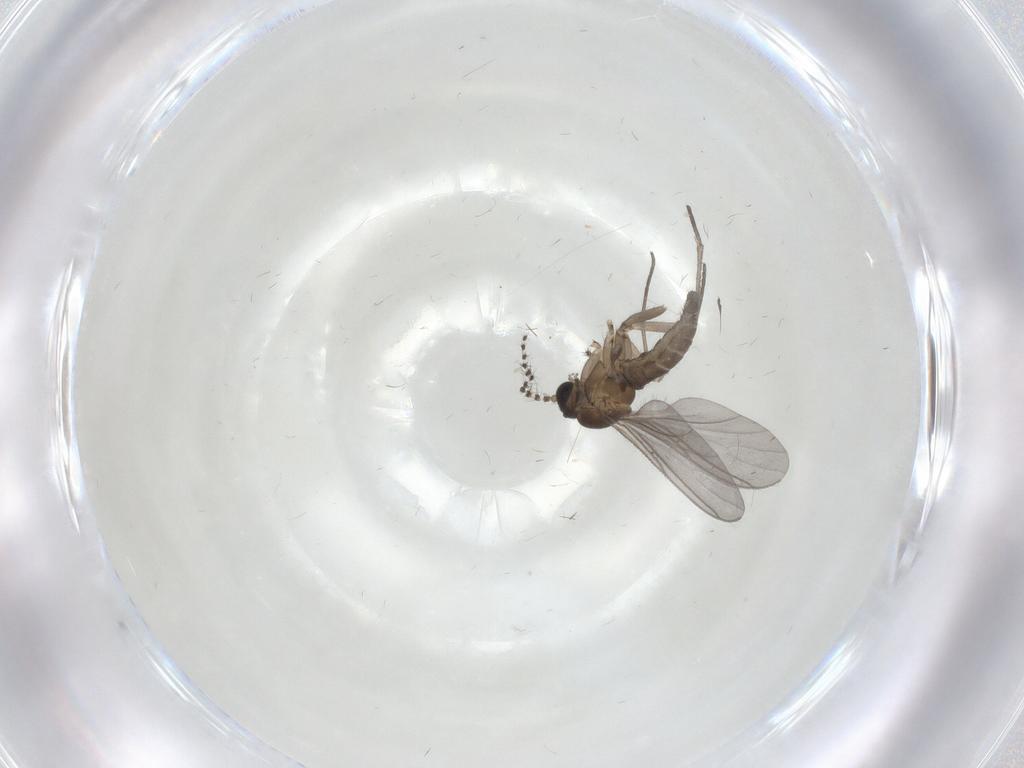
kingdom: Animalia
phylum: Arthropoda
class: Insecta
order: Diptera
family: Sciaridae
